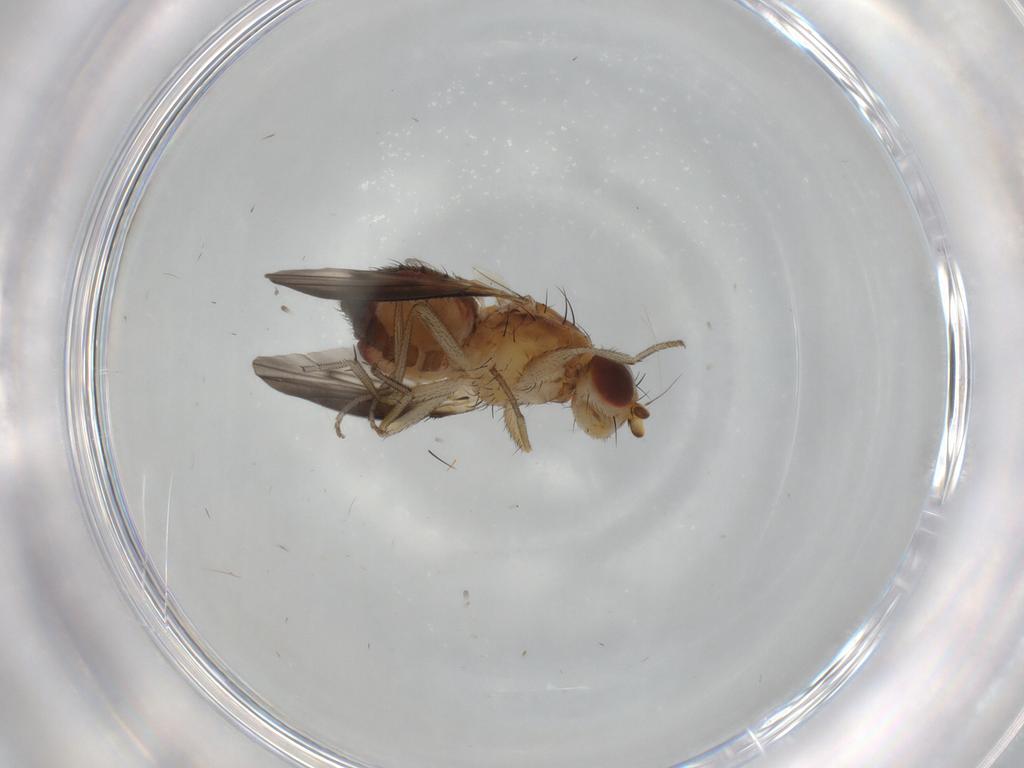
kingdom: Animalia
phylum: Arthropoda
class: Insecta
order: Diptera
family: Heleomyzidae
